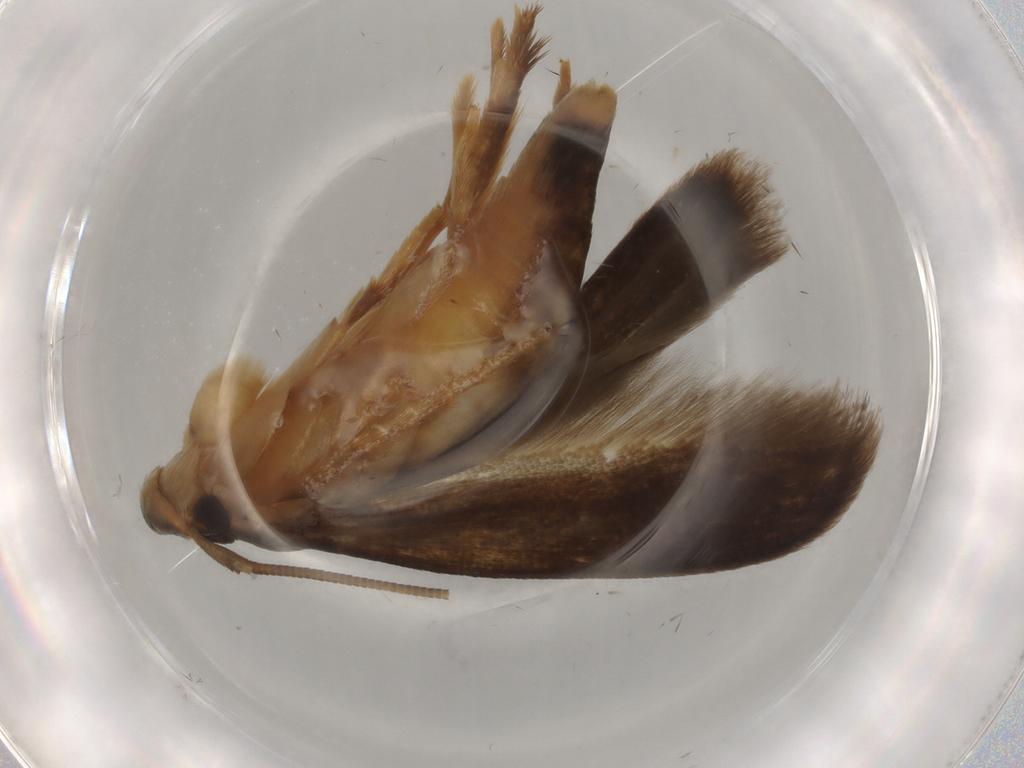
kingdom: Animalia
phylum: Arthropoda
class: Insecta
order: Lepidoptera
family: Tineidae
